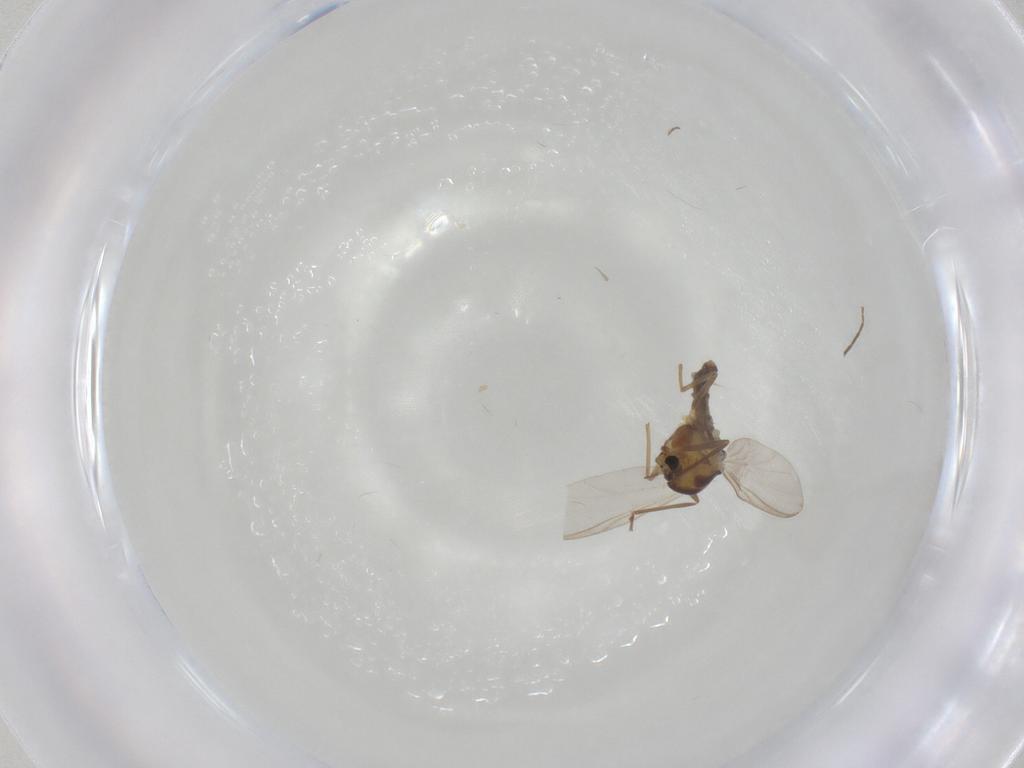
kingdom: Animalia
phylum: Arthropoda
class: Insecta
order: Diptera
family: Chironomidae
